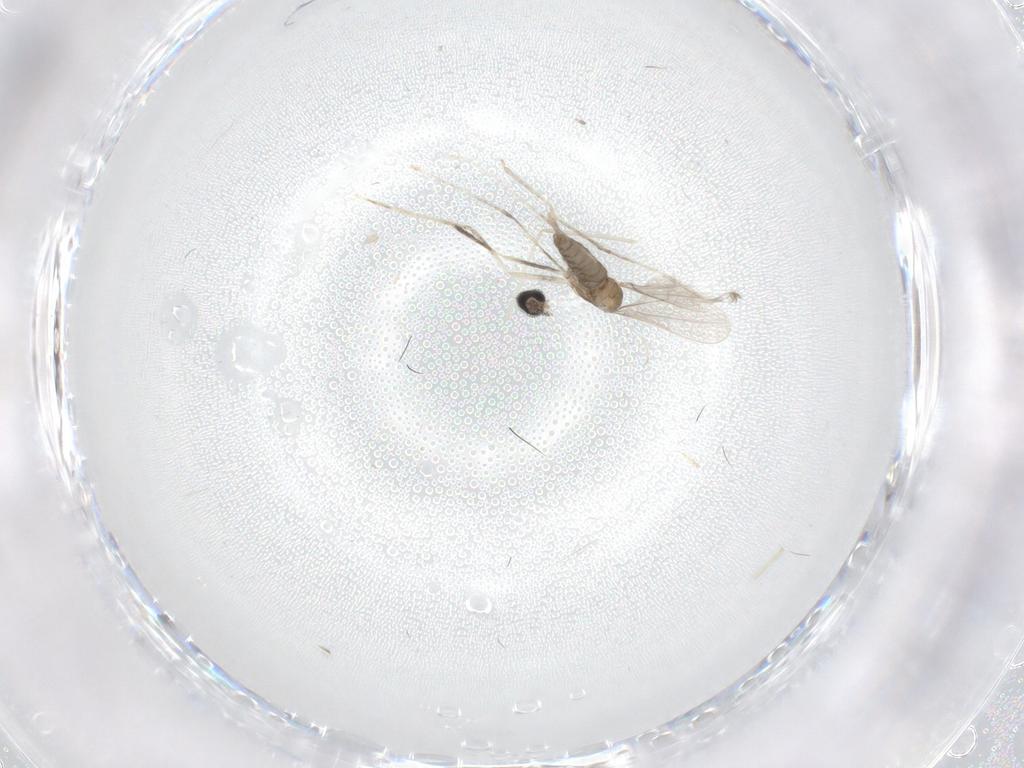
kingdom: Animalia
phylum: Arthropoda
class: Insecta
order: Diptera
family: Cecidomyiidae
